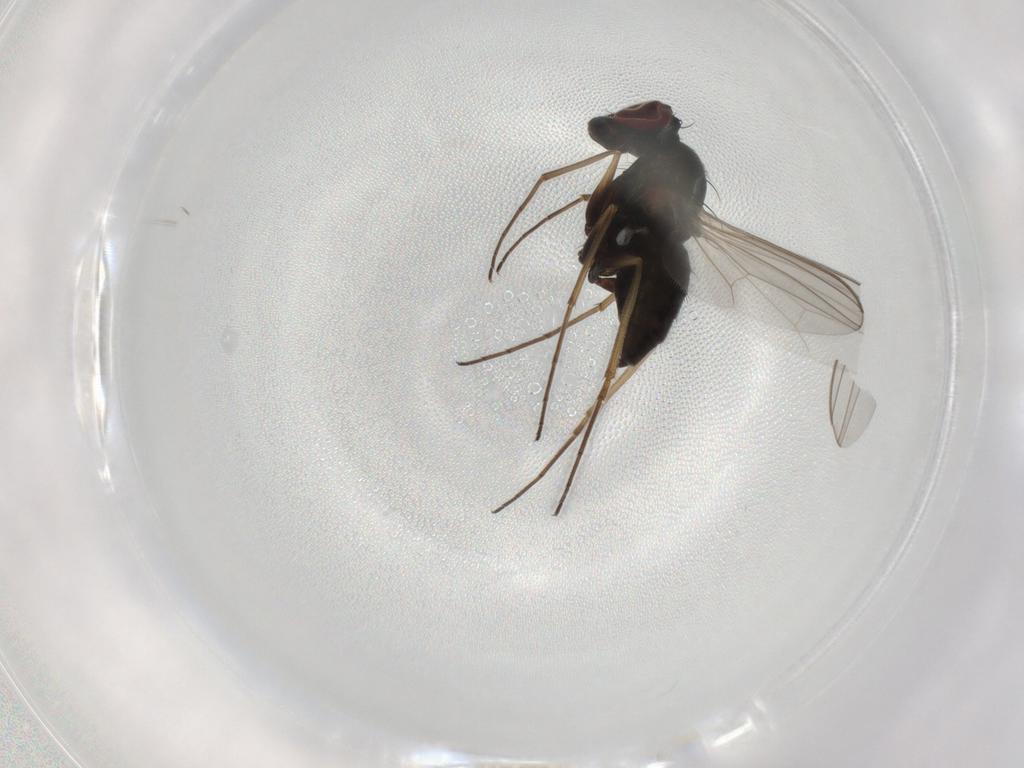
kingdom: Animalia
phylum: Arthropoda
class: Insecta
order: Diptera
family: Dolichopodidae
